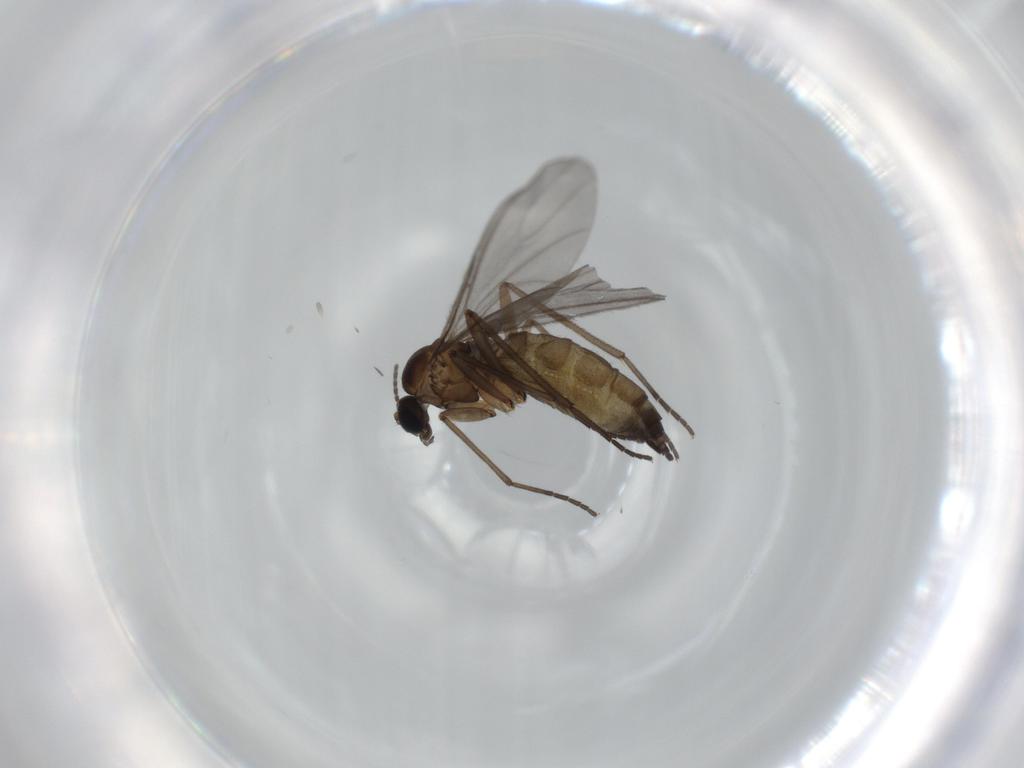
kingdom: Animalia
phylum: Arthropoda
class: Insecta
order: Diptera
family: Sciaridae
